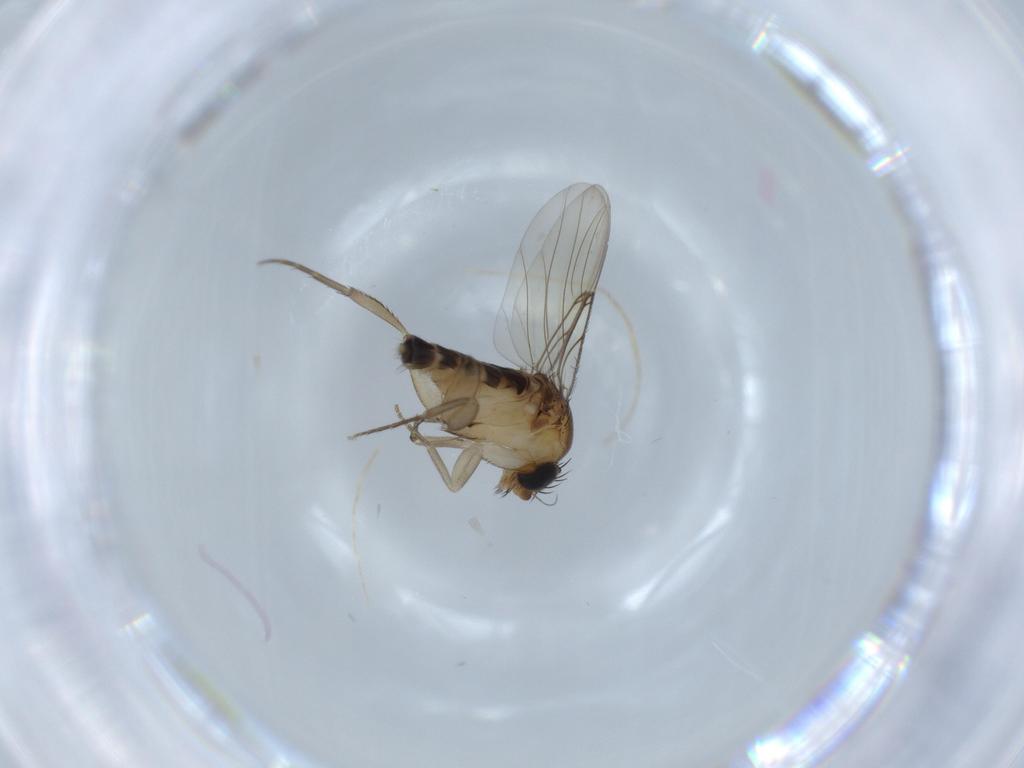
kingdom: Animalia
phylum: Arthropoda
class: Insecta
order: Diptera
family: Phoridae
